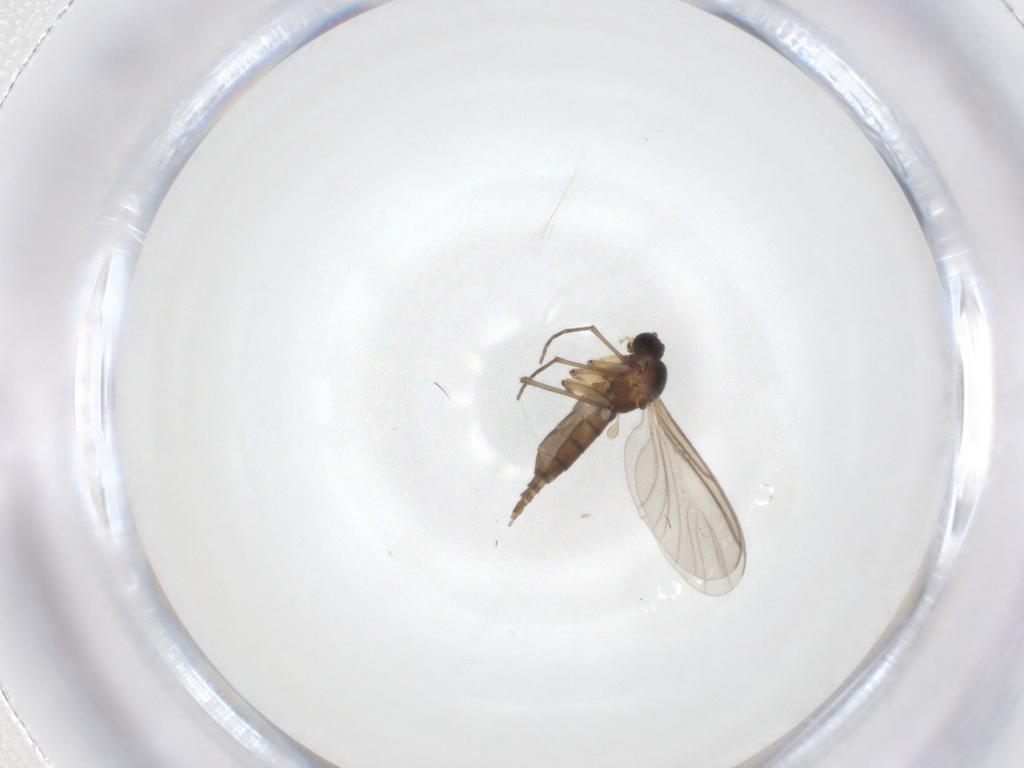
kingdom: Animalia
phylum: Arthropoda
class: Insecta
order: Diptera
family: Sciaridae
